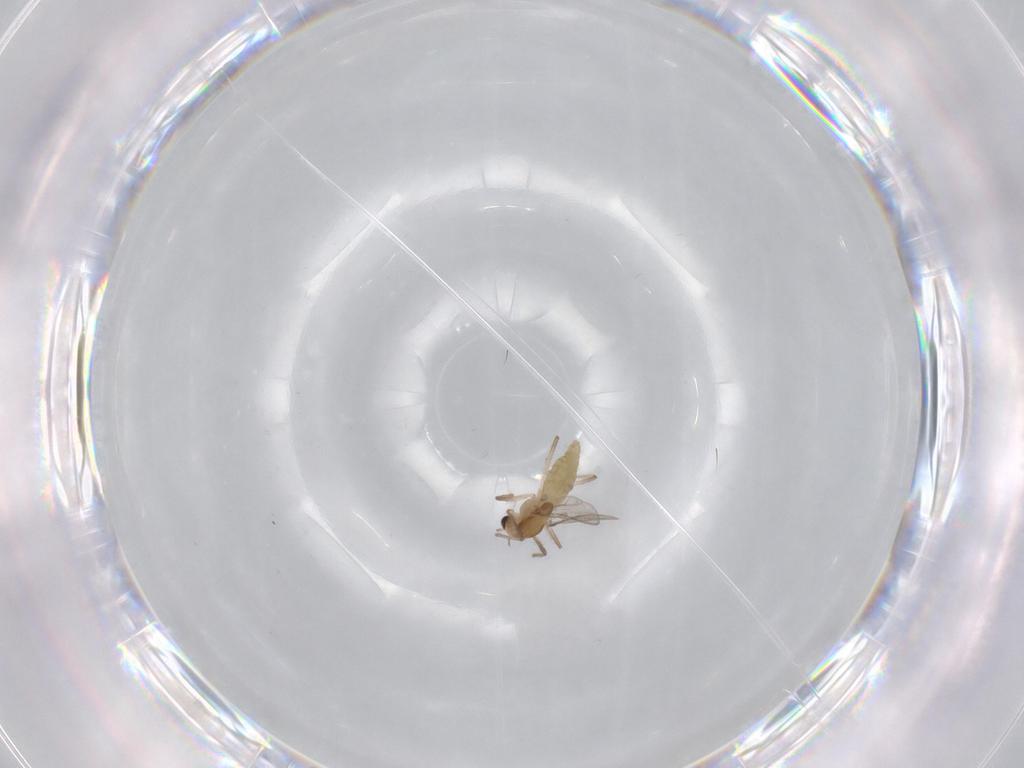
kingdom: Animalia
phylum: Arthropoda
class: Insecta
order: Diptera
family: Chironomidae
